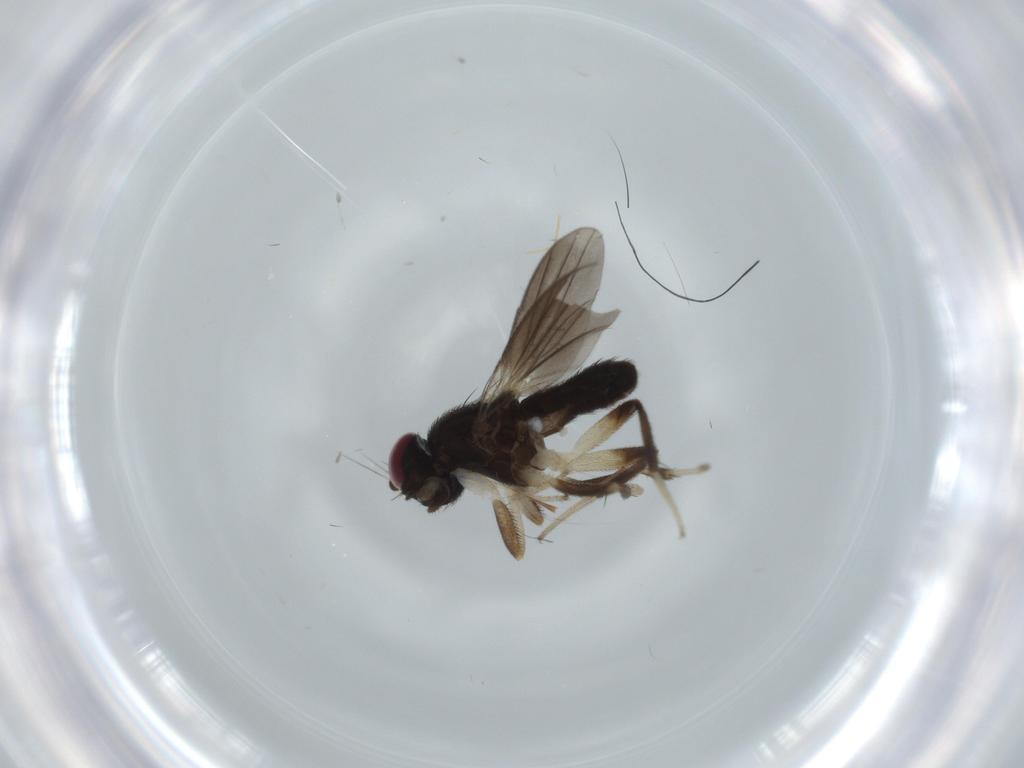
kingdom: Animalia
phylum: Arthropoda
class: Insecta
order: Diptera
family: Clusiidae
